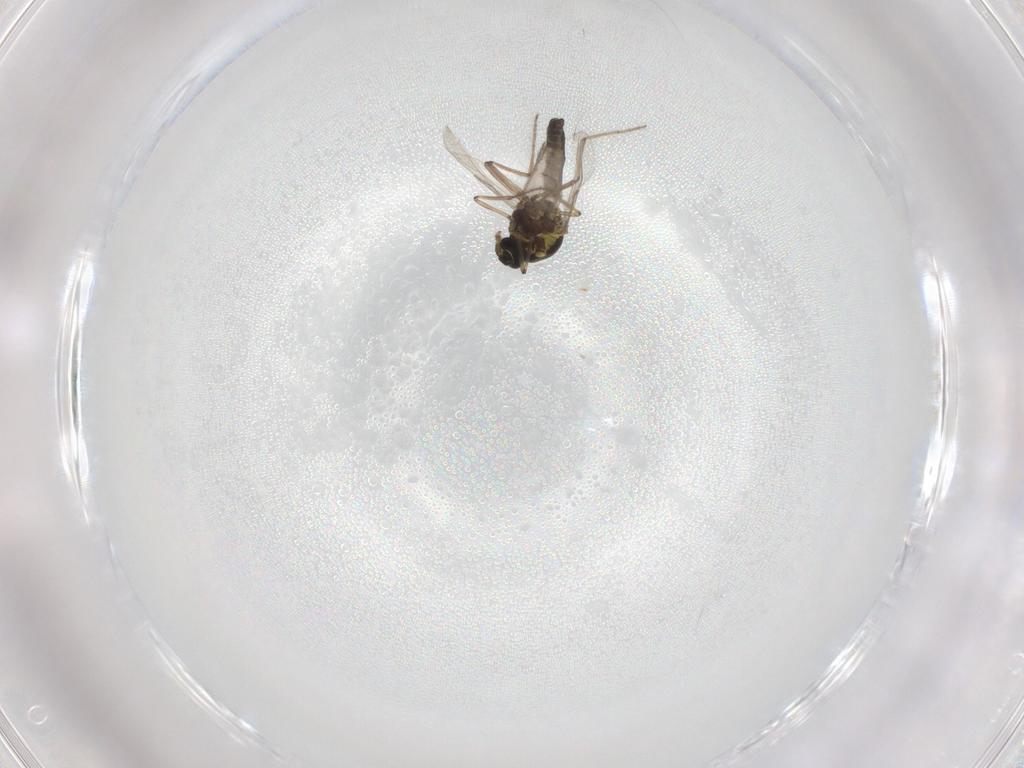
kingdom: Animalia
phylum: Arthropoda
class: Insecta
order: Diptera
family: Ceratopogonidae
